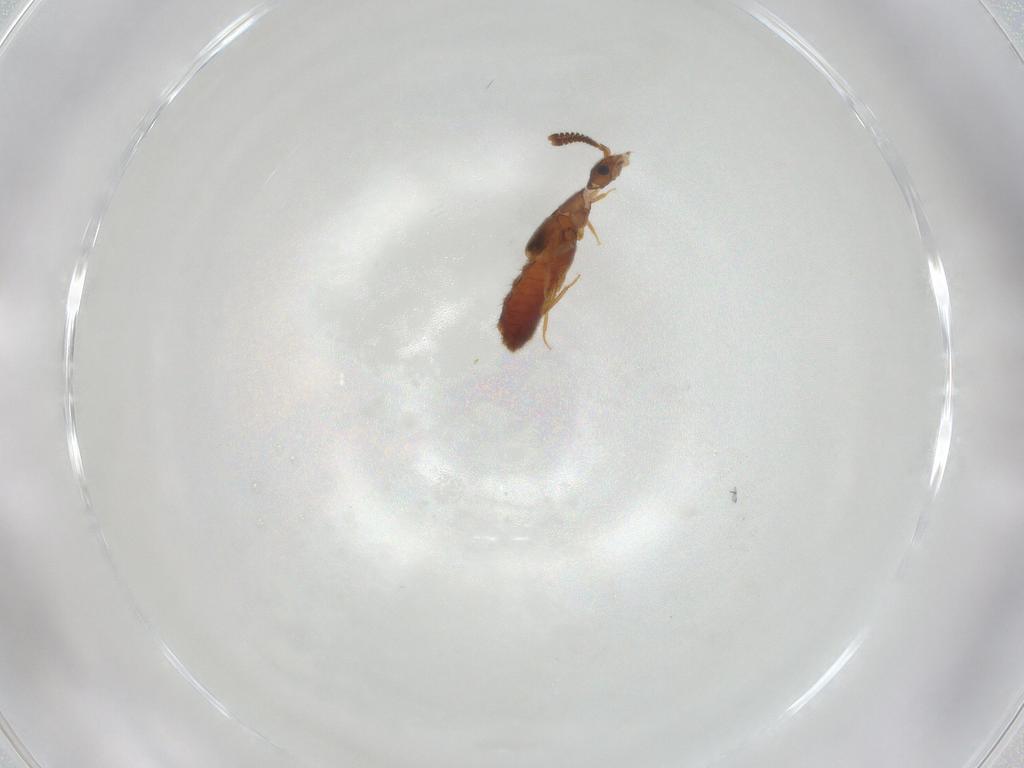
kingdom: Animalia
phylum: Arthropoda
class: Insecta
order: Coleoptera
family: Staphylinidae
